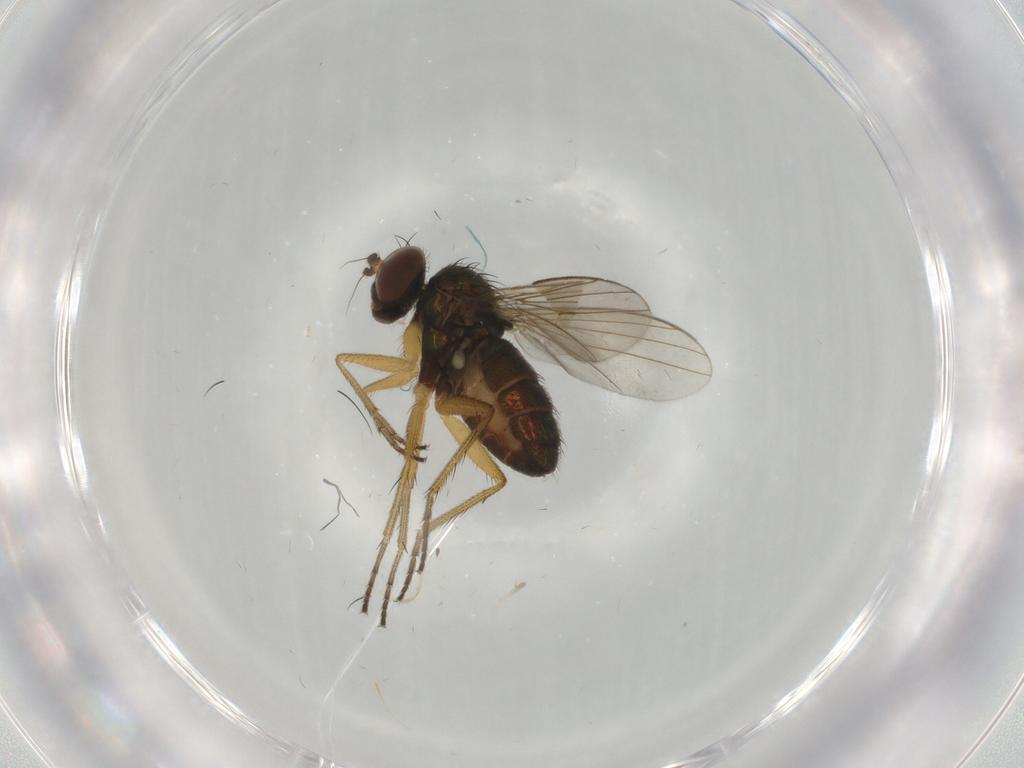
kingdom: Animalia
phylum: Arthropoda
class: Insecta
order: Diptera
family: Dolichopodidae
